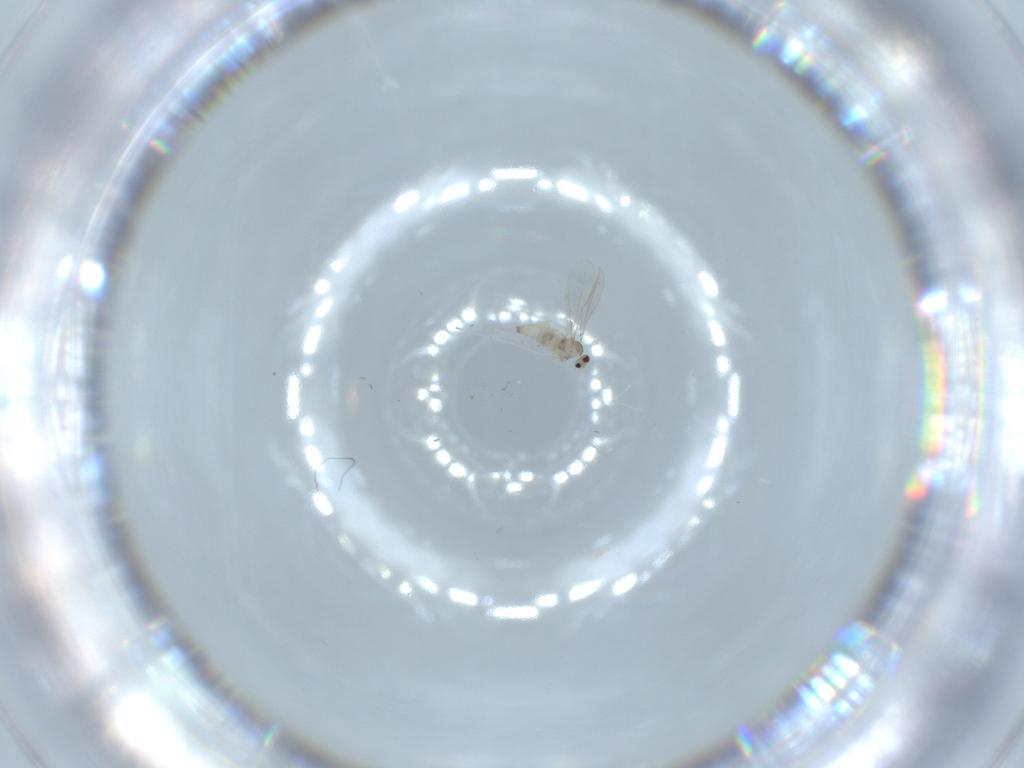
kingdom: Animalia
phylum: Arthropoda
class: Insecta
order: Diptera
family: Cecidomyiidae
